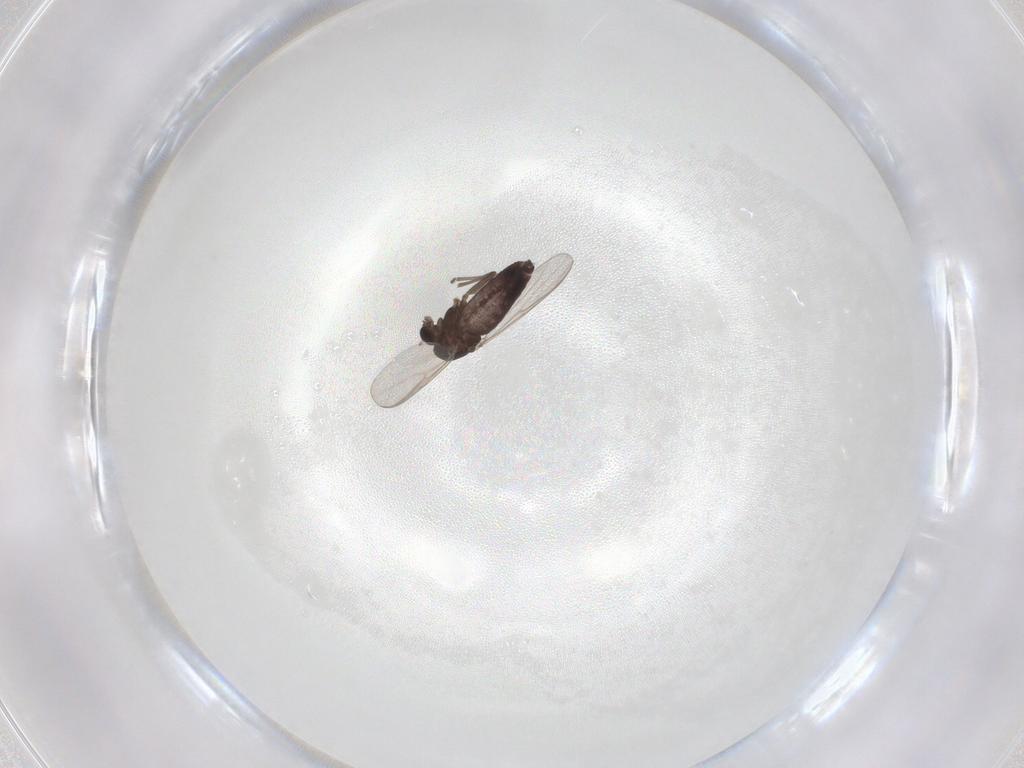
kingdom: Animalia
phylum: Arthropoda
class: Insecta
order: Diptera
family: Chironomidae
